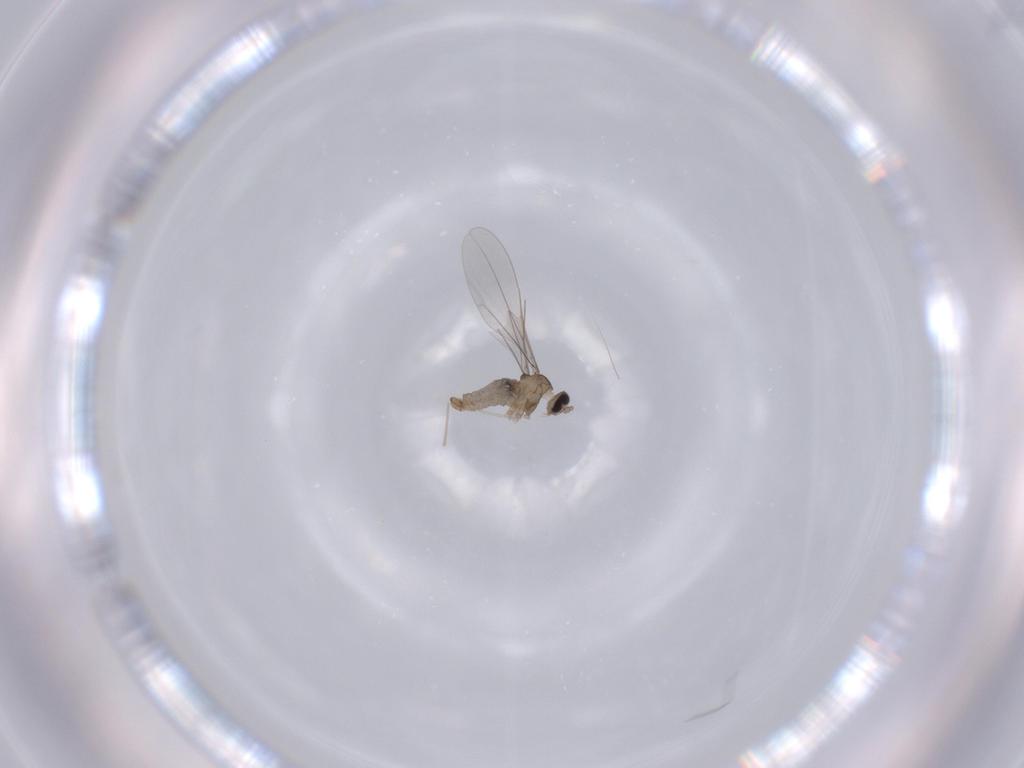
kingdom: Animalia
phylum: Arthropoda
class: Insecta
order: Diptera
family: Cecidomyiidae
